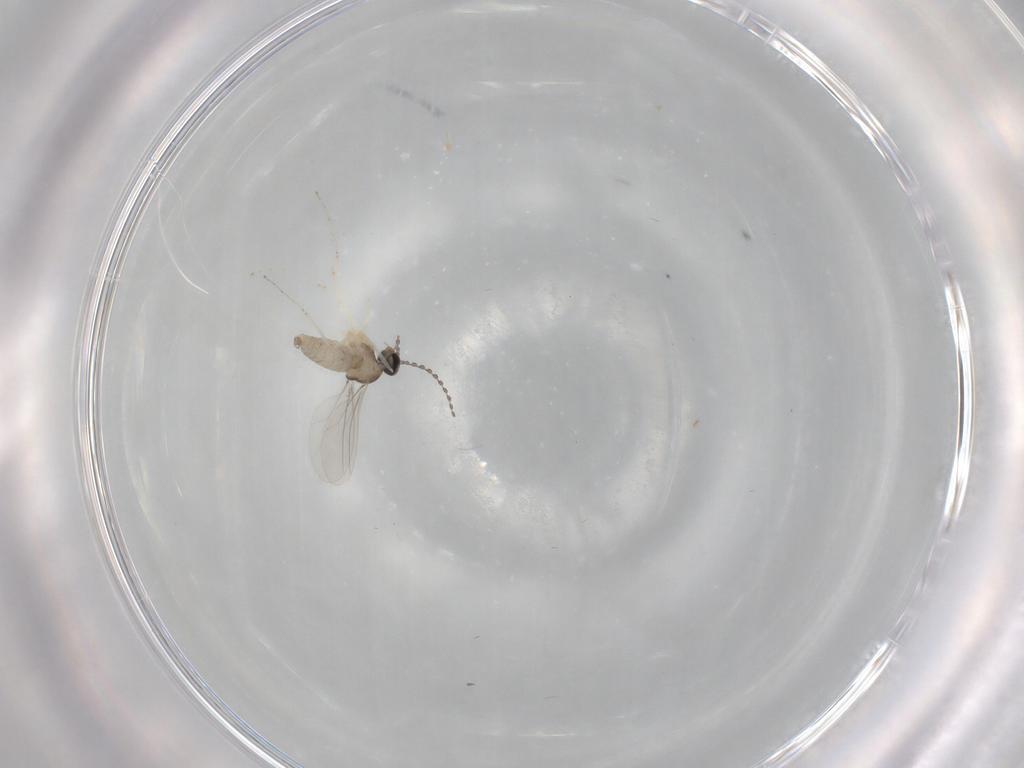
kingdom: Animalia
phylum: Arthropoda
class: Insecta
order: Diptera
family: Cecidomyiidae
